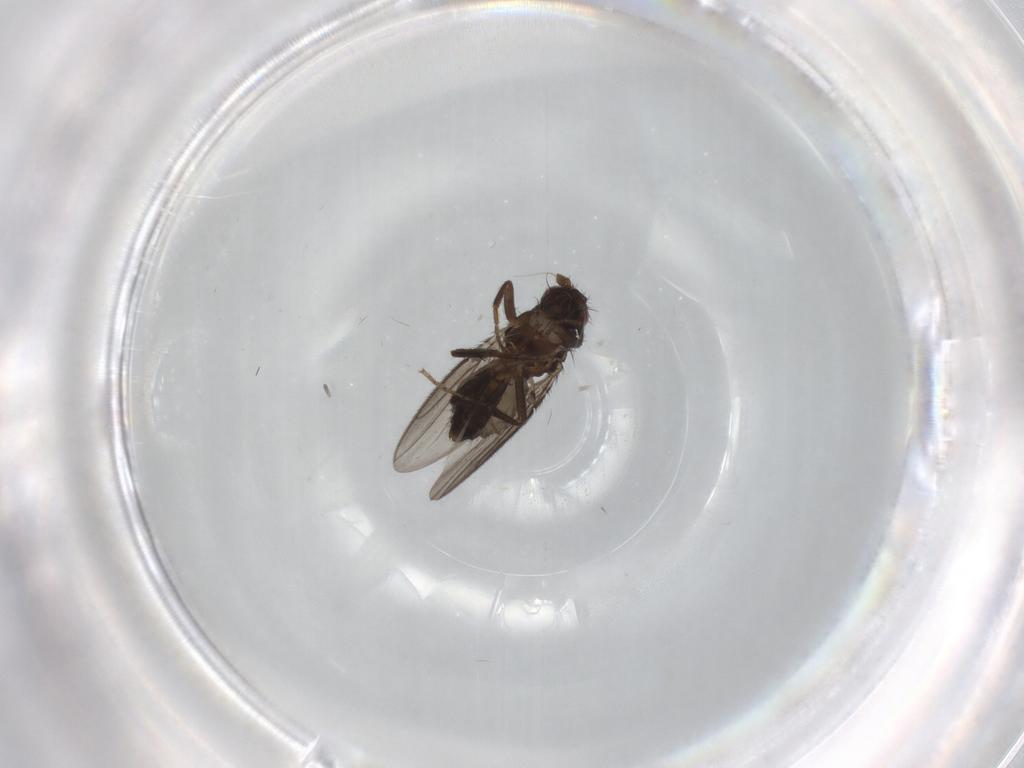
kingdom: Animalia
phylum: Arthropoda
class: Insecta
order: Diptera
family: Sphaeroceridae
